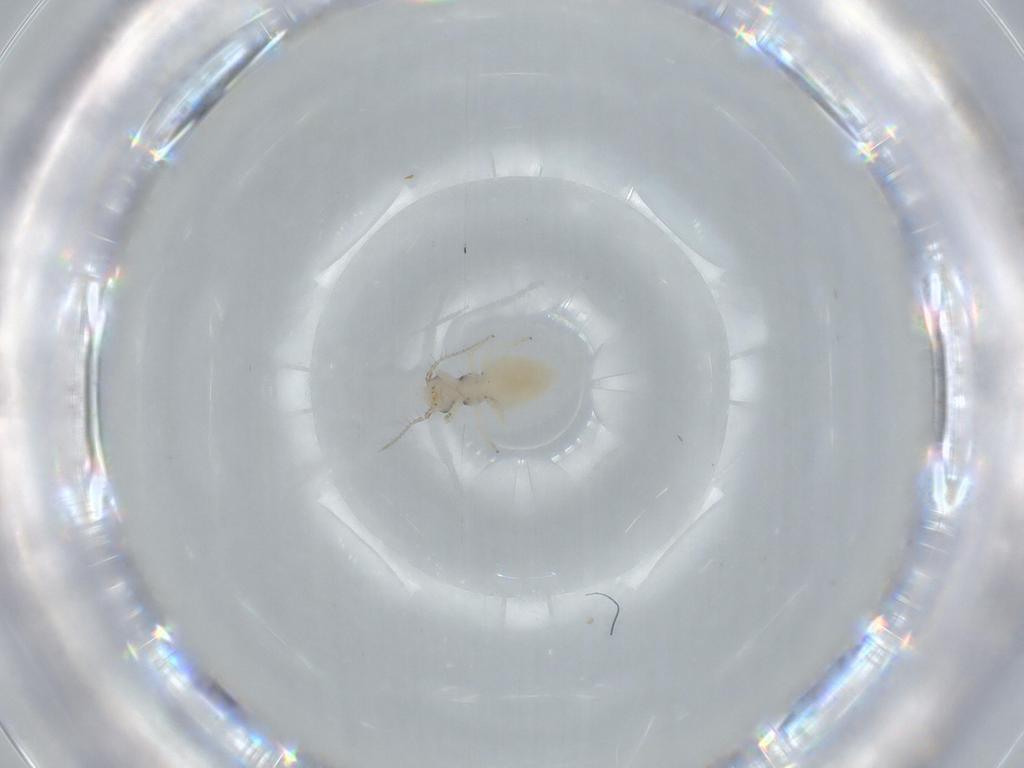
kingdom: Animalia
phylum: Arthropoda
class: Insecta
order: Psocodea
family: Pseudocaeciliidae
